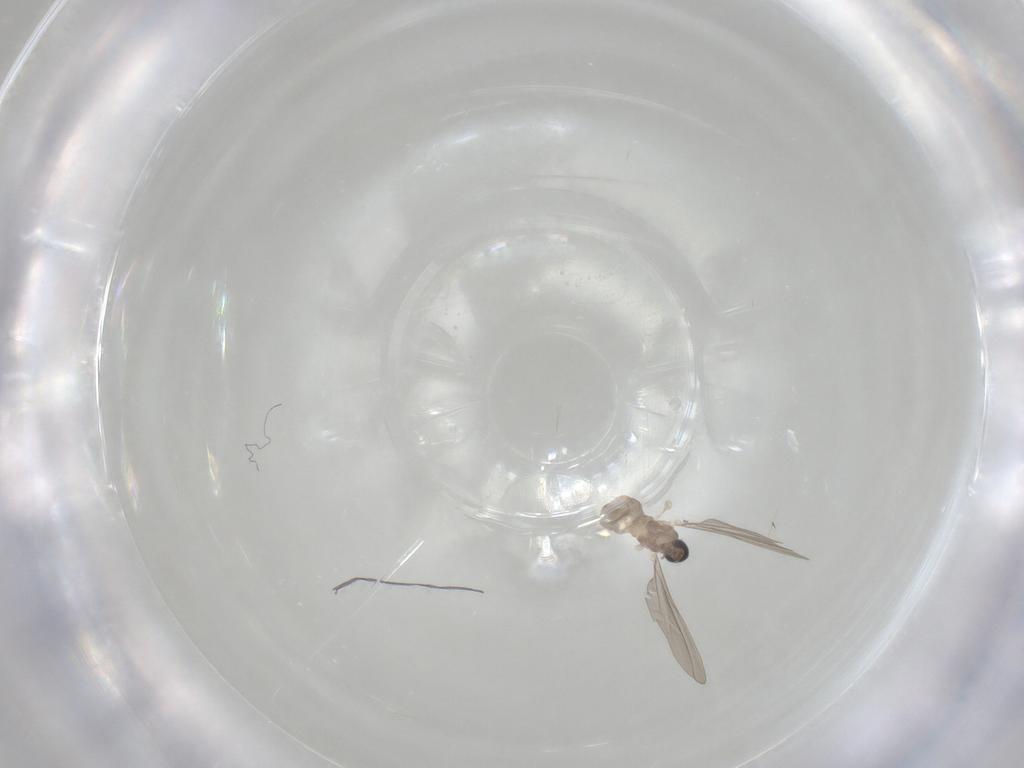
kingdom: Animalia
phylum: Arthropoda
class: Insecta
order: Diptera
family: Cecidomyiidae
